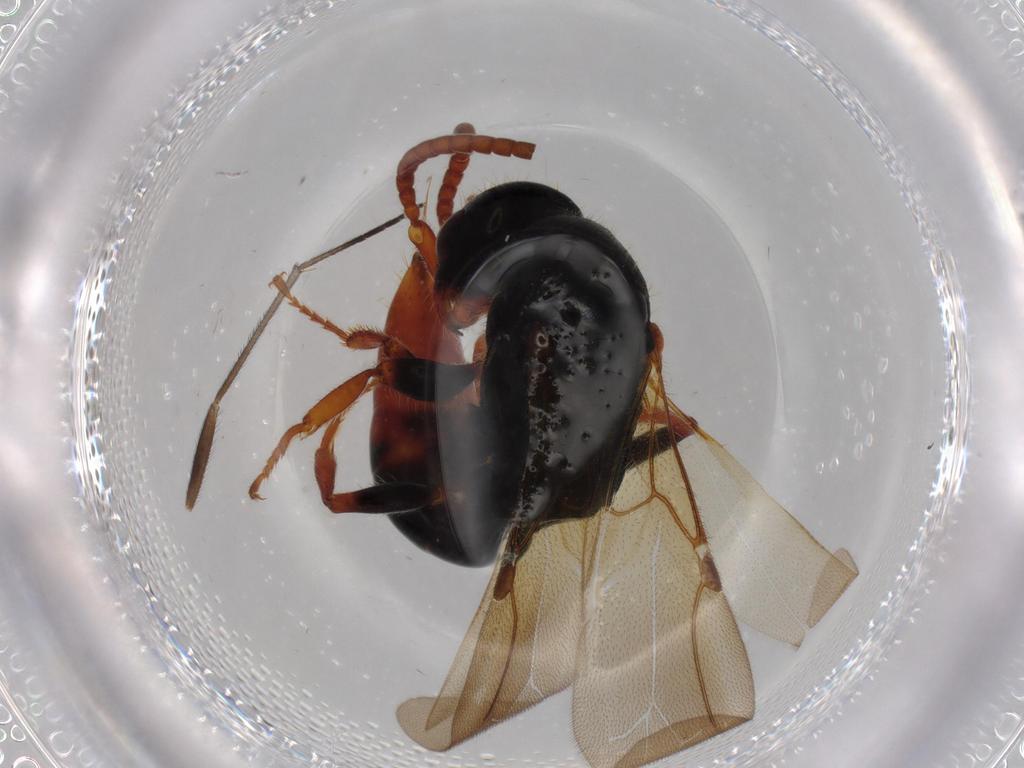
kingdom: Animalia
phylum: Arthropoda
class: Insecta
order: Hymenoptera
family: Bethylidae
